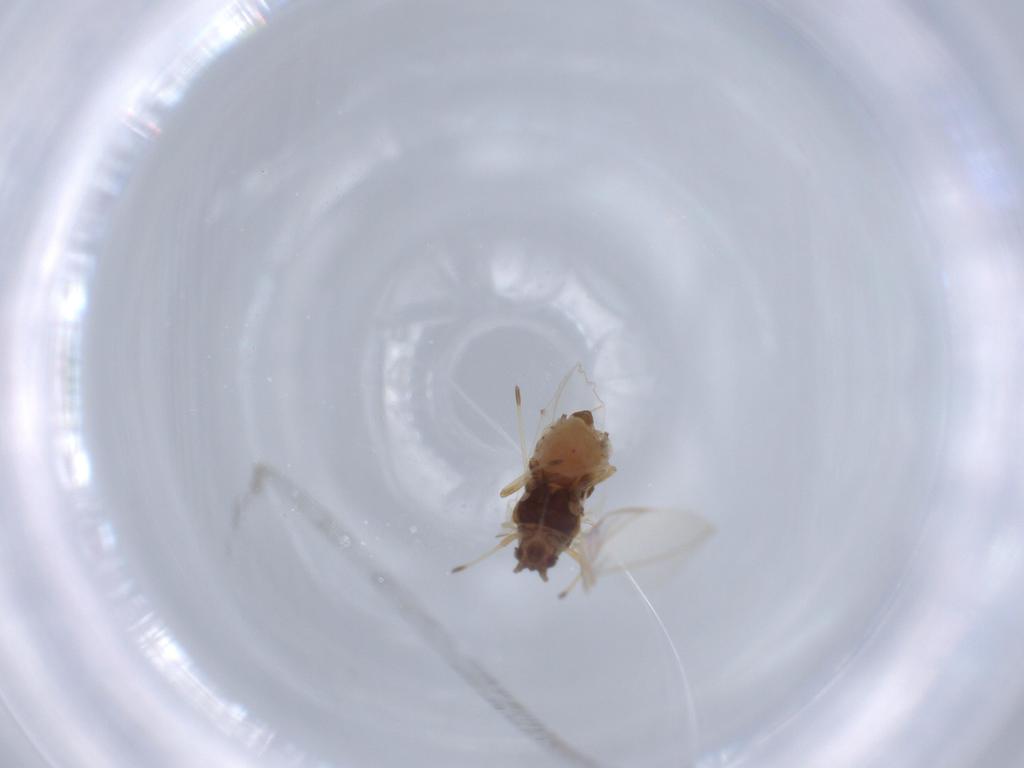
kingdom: Animalia
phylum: Arthropoda
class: Insecta
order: Hemiptera
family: Aphididae
